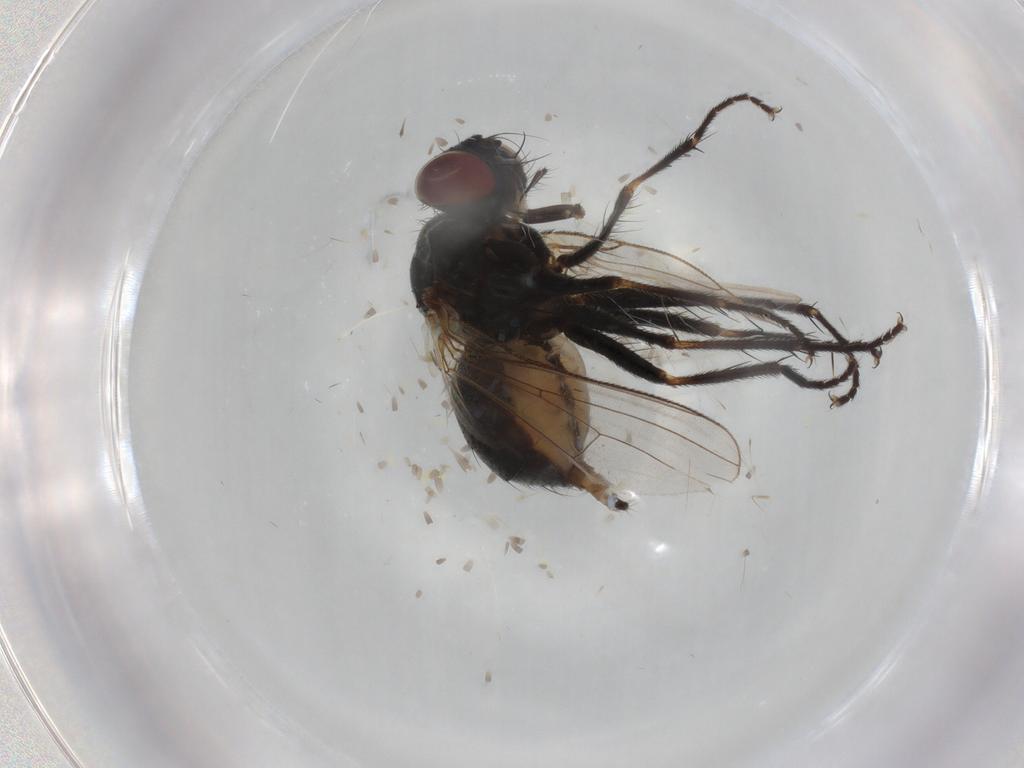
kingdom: Animalia
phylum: Arthropoda
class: Insecta
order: Diptera
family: Muscidae
